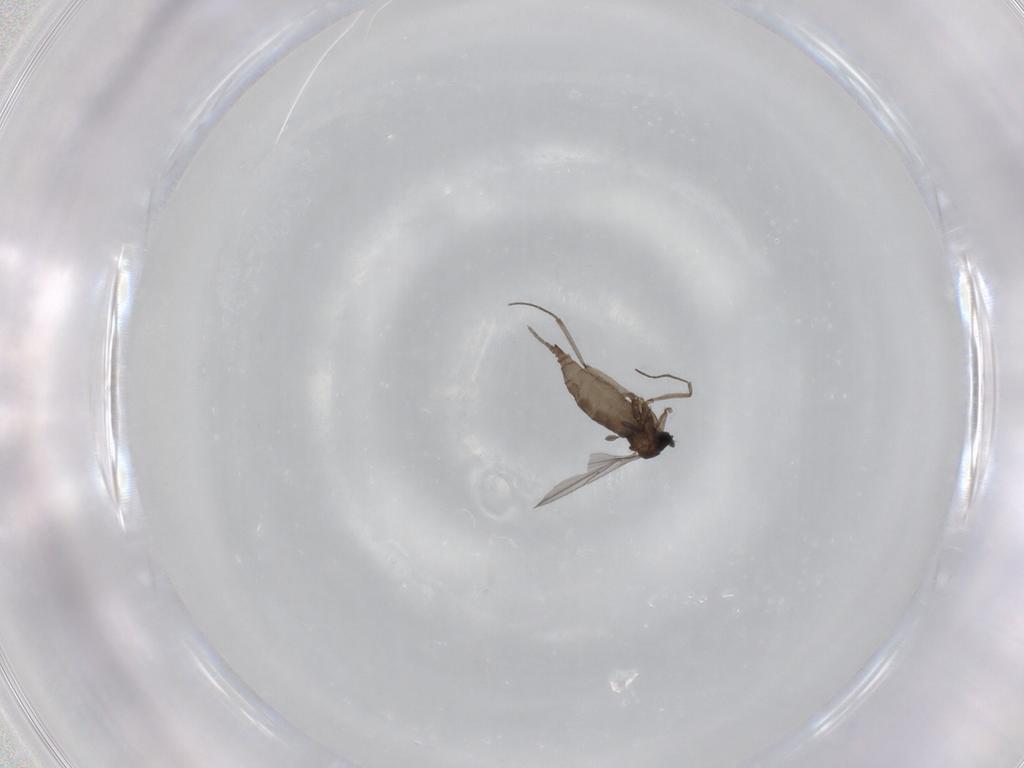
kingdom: Animalia
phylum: Arthropoda
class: Insecta
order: Diptera
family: Sciaridae
